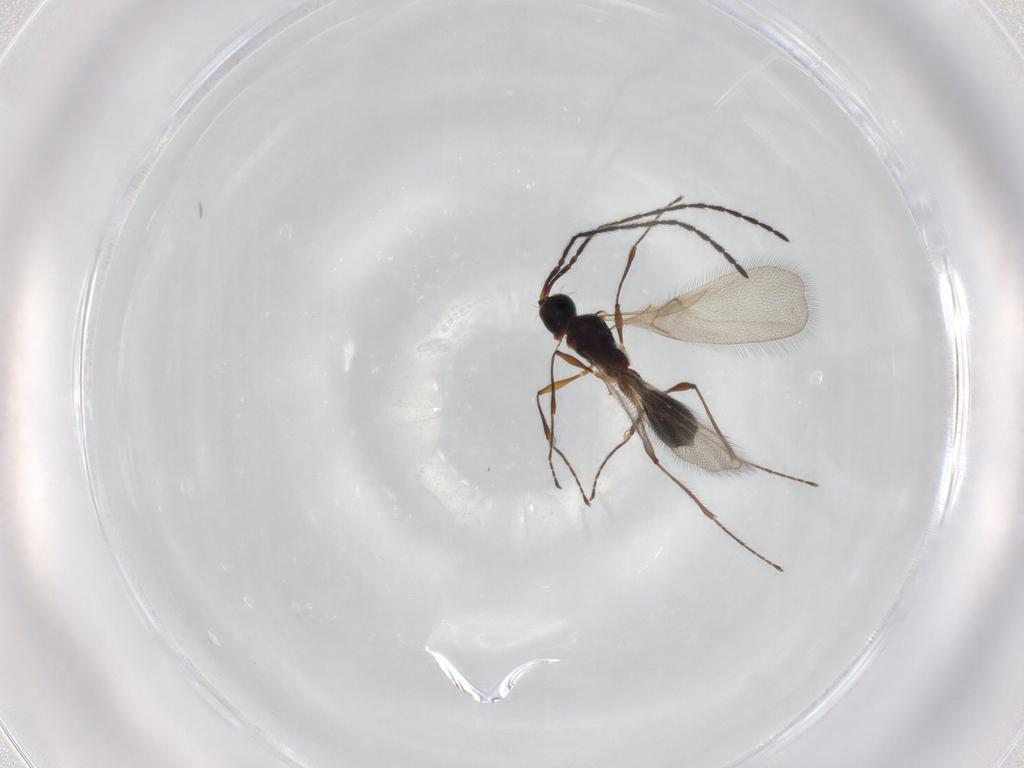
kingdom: Animalia
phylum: Arthropoda
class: Insecta
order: Hymenoptera
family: Diapriidae
